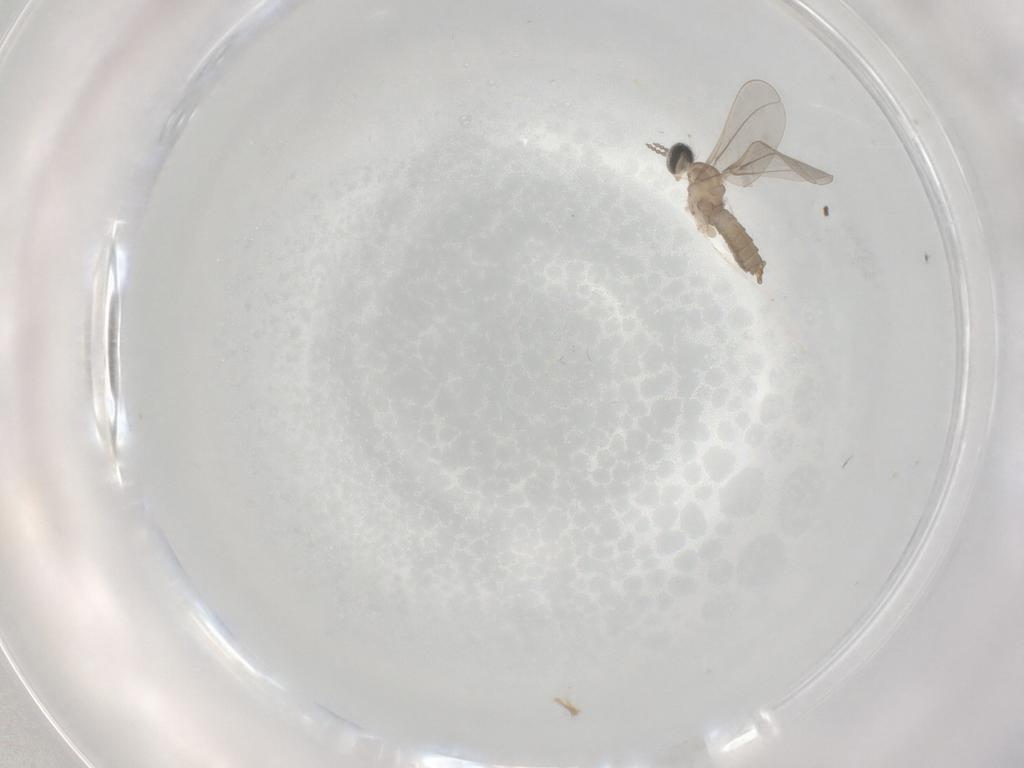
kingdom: Animalia
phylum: Arthropoda
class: Insecta
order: Diptera
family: Cecidomyiidae
